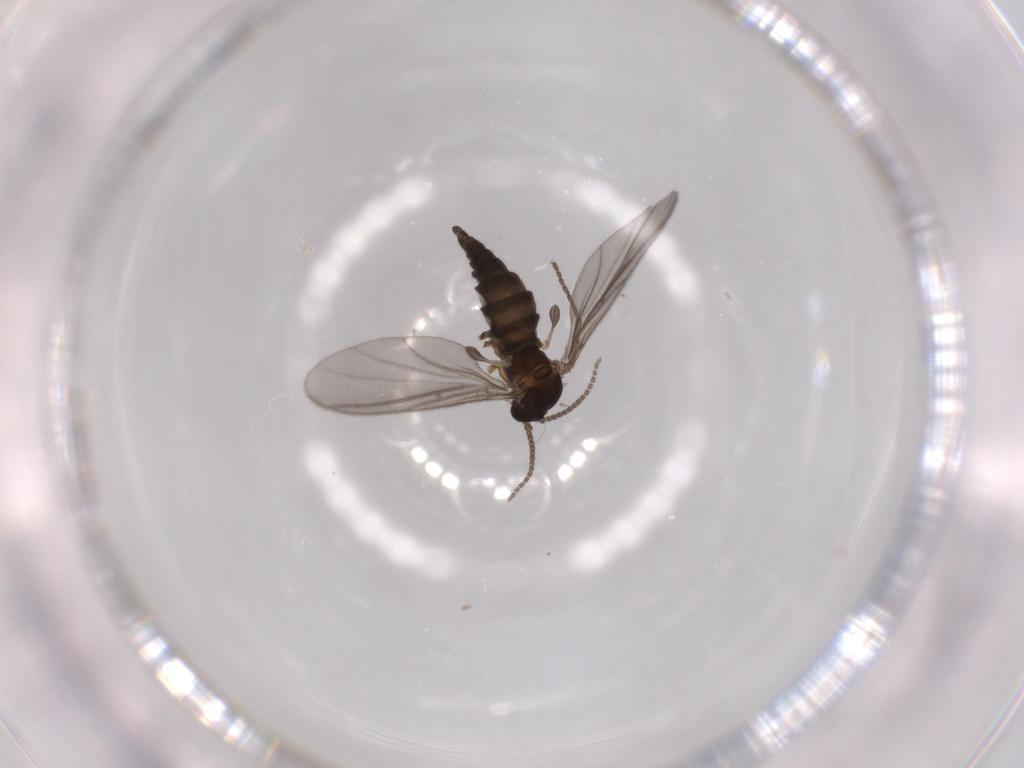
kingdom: Animalia
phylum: Arthropoda
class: Insecta
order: Diptera
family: Sciaridae
